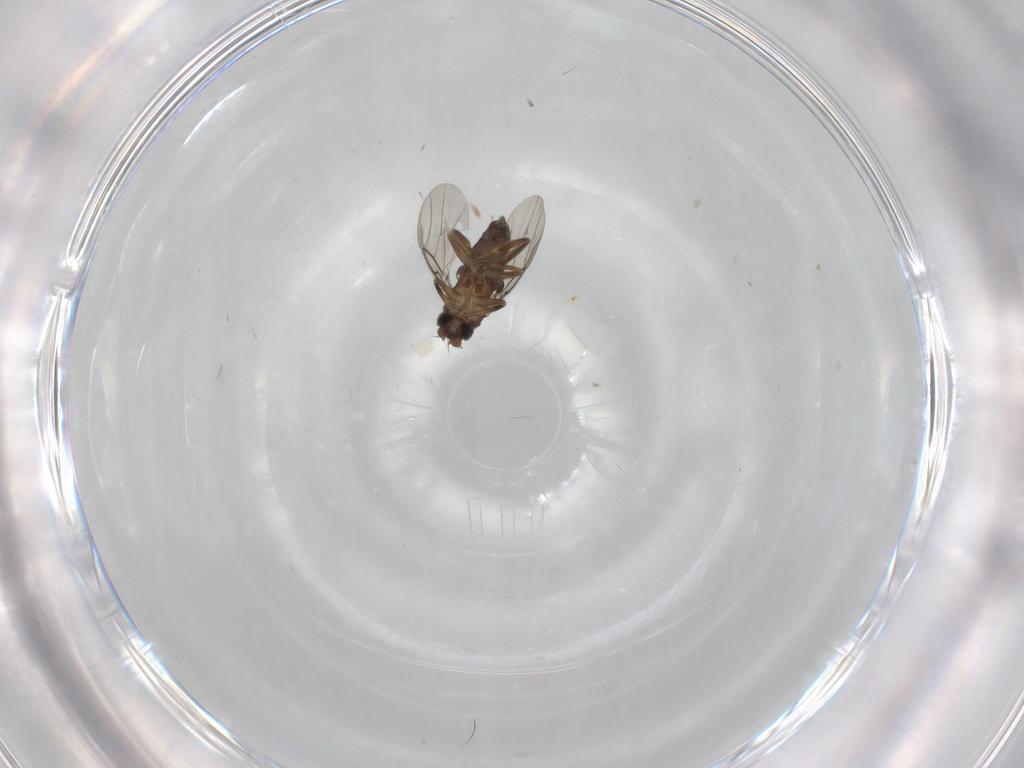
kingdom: Animalia
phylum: Arthropoda
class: Insecta
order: Diptera
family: Phoridae
